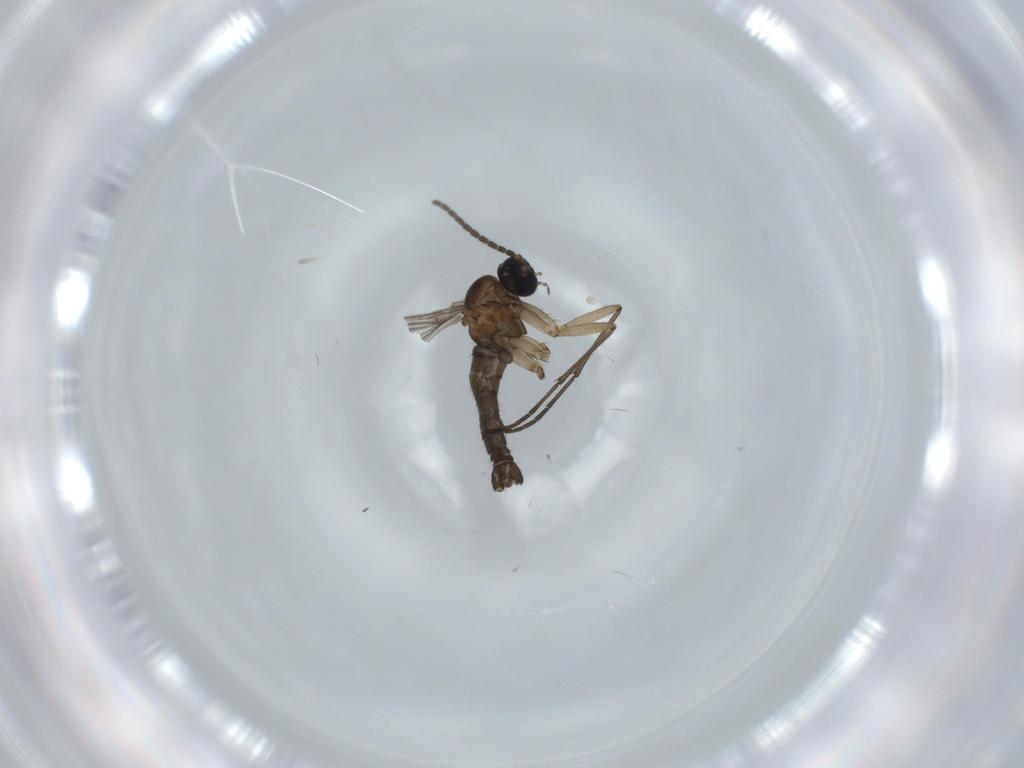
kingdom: Animalia
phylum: Arthropoda
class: Insecta
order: Diptera
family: Sciaridae
